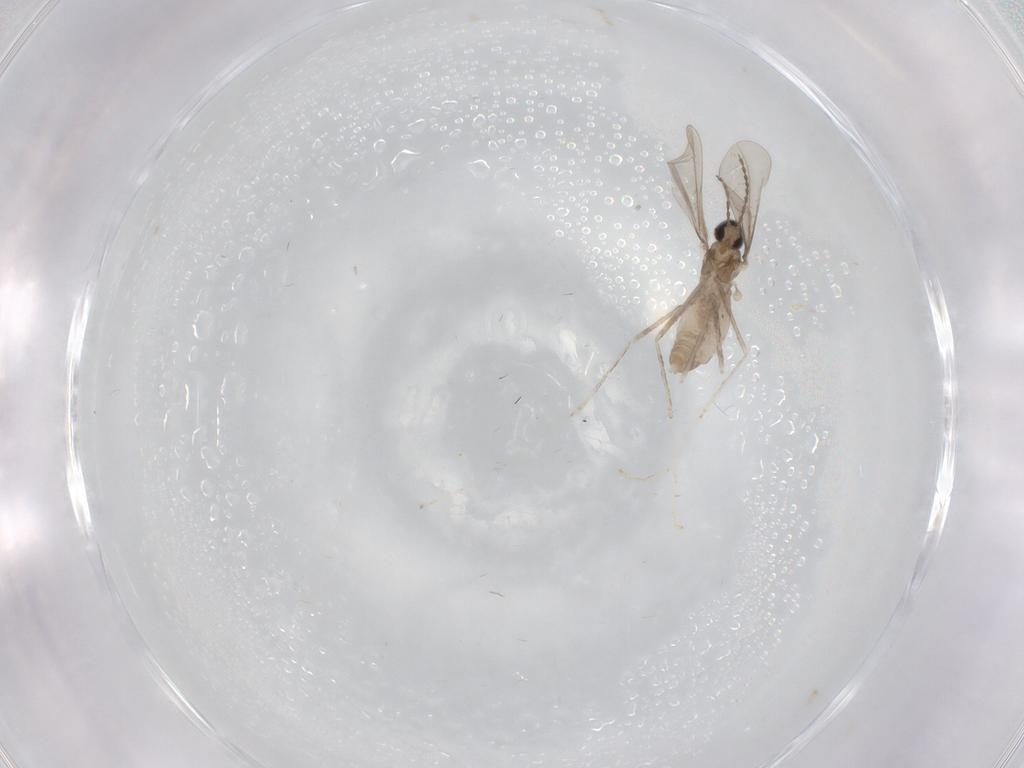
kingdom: Animalia
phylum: Arthropoda
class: Insecta
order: Diptera
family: Cecidomyiidae
